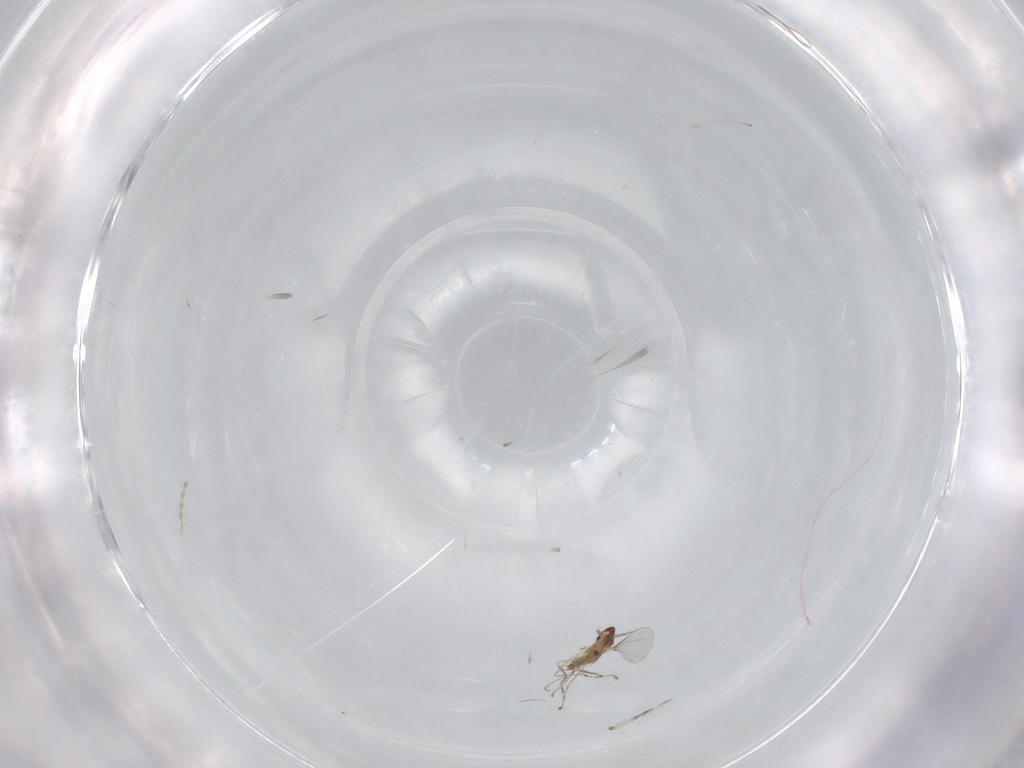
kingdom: Animalia
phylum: Arthropoda
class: Insecta
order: Diptera
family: Cecidomyiidae
